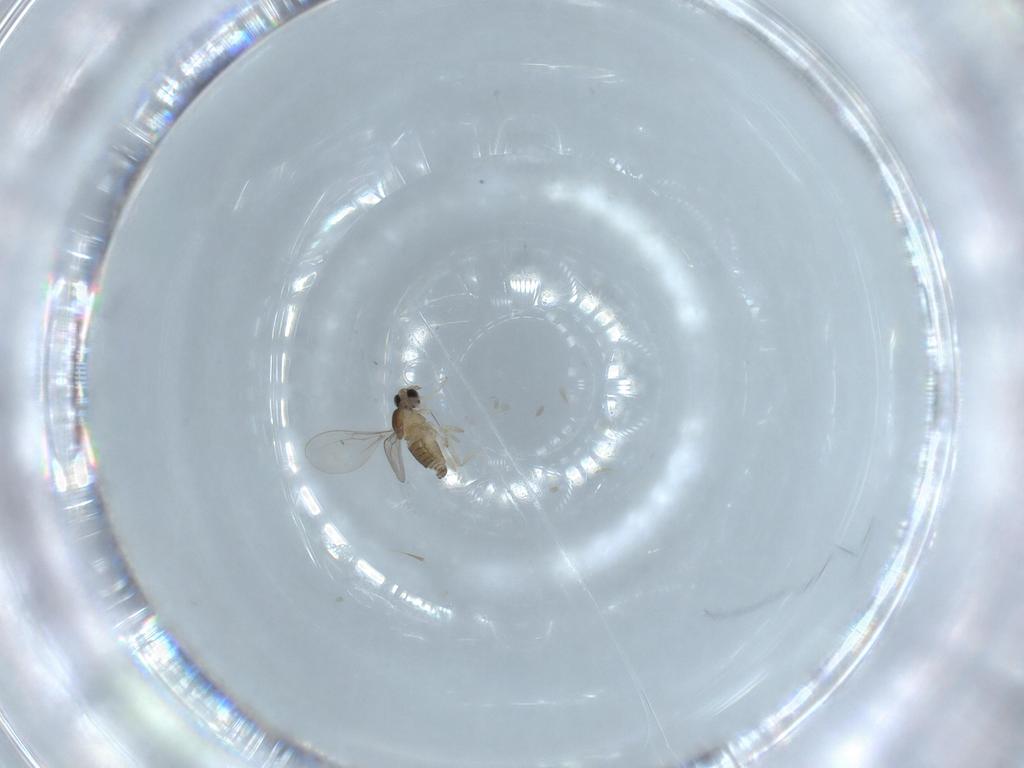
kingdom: Animalia
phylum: Arthropoda
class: Insecta
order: Diptera
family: Cecidomyiidae
